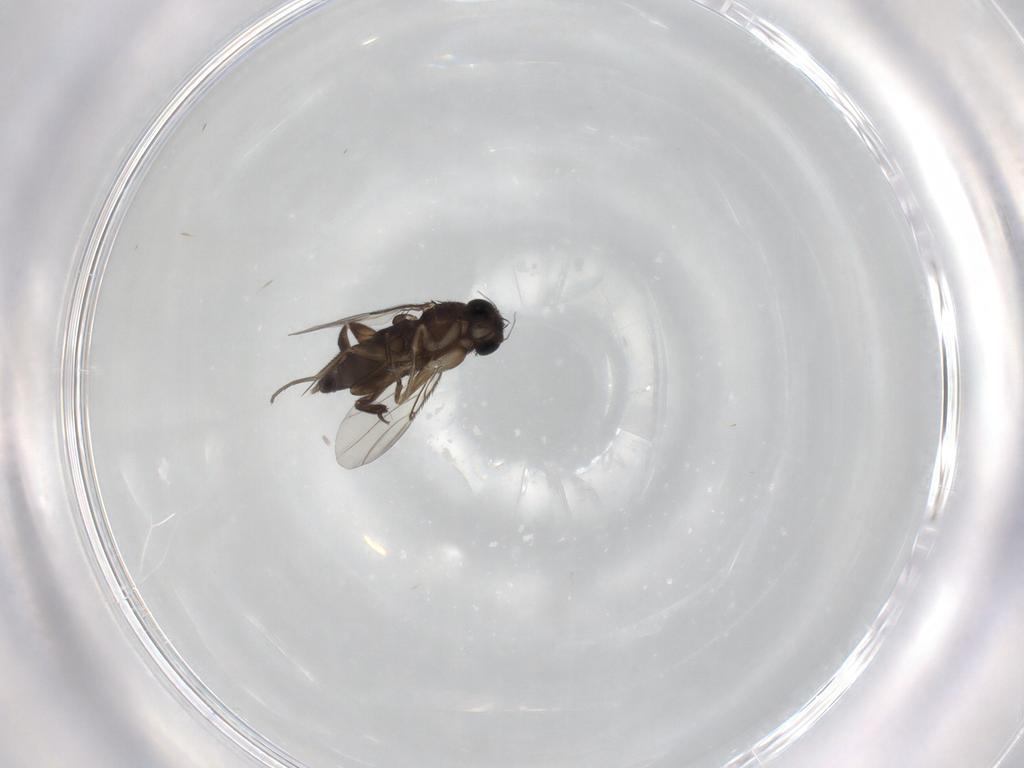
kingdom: Animalia
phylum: Arthropoda
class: Insecta
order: Diptera
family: Phoridae
